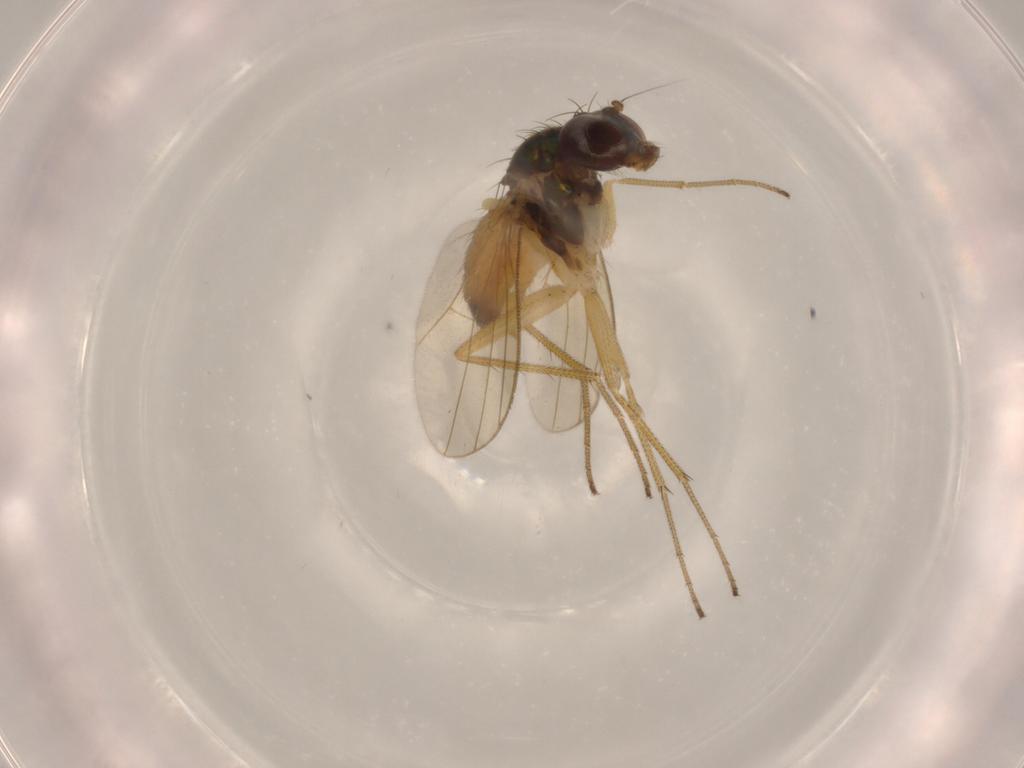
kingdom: Animalia
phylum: Arthropoda
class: Insecta
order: Diptera
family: Dolichopodidae
